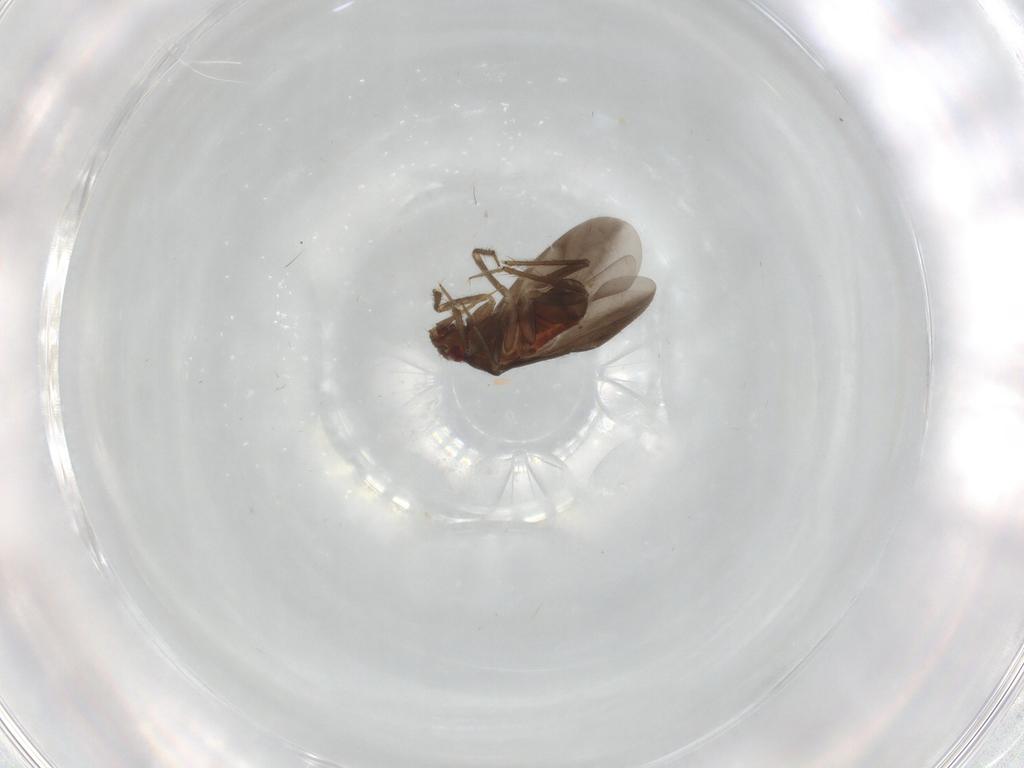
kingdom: Animalia
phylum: Arthropoda
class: Insecta
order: Hemiptera
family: Ceratocombidae
